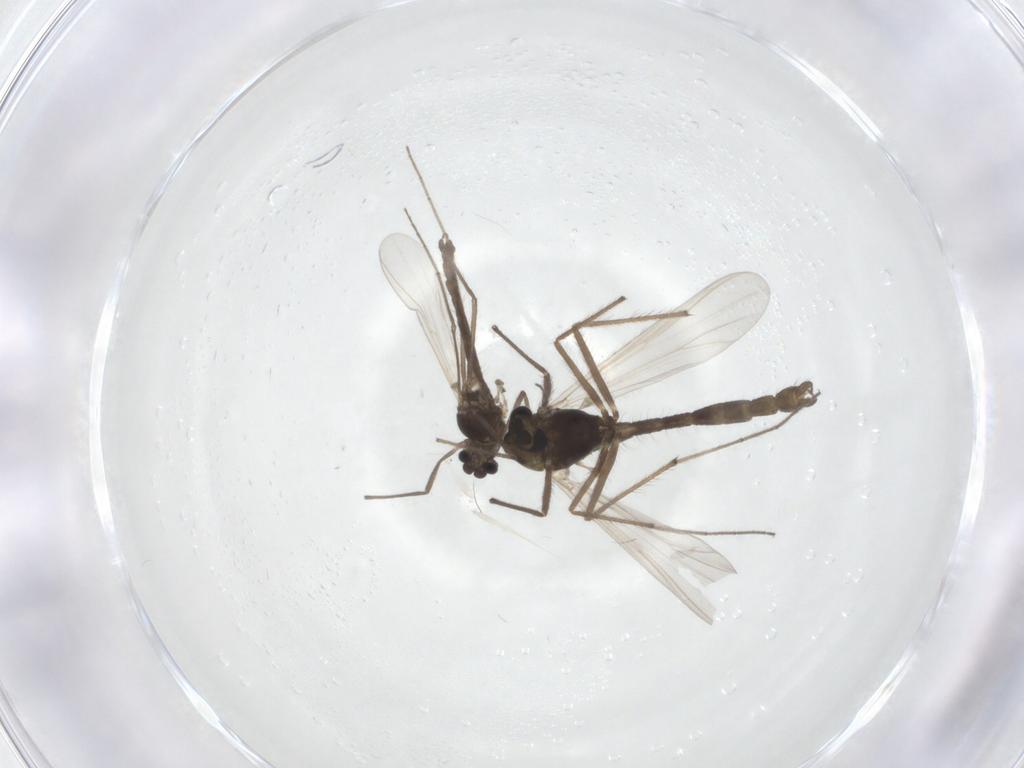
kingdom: Animalia
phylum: Arthropoda
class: Insecta
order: Diptera
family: Chironomidae
